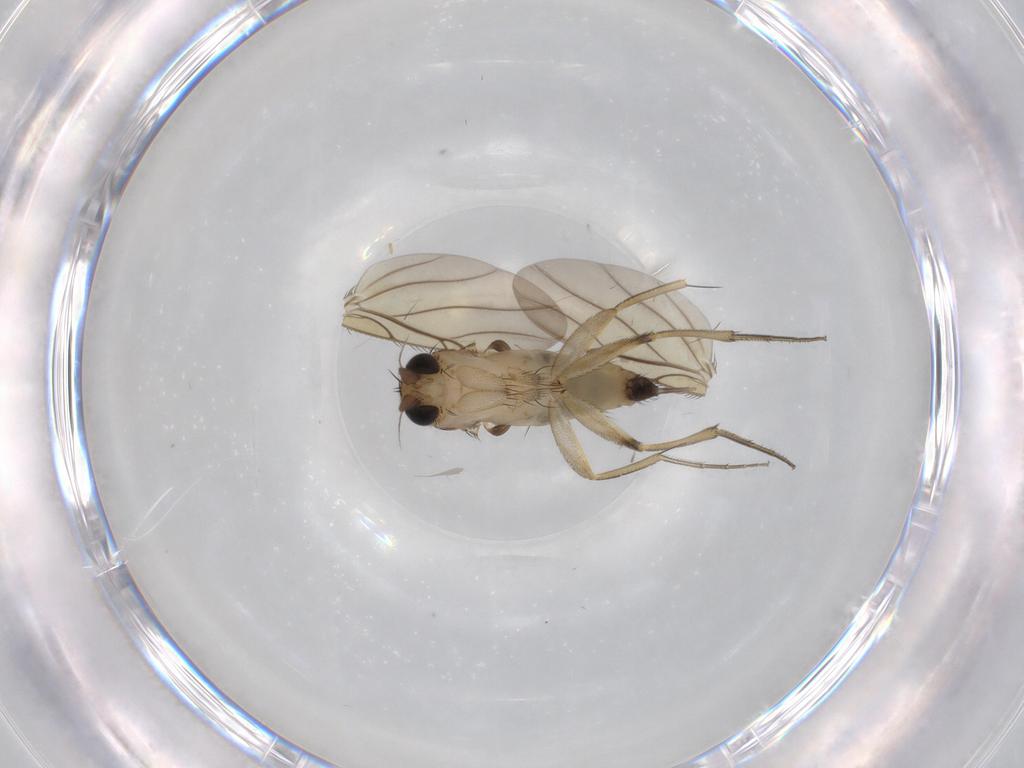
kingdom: Animalia
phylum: Arthropoda
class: Insecta
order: Diptera
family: Phoridae
